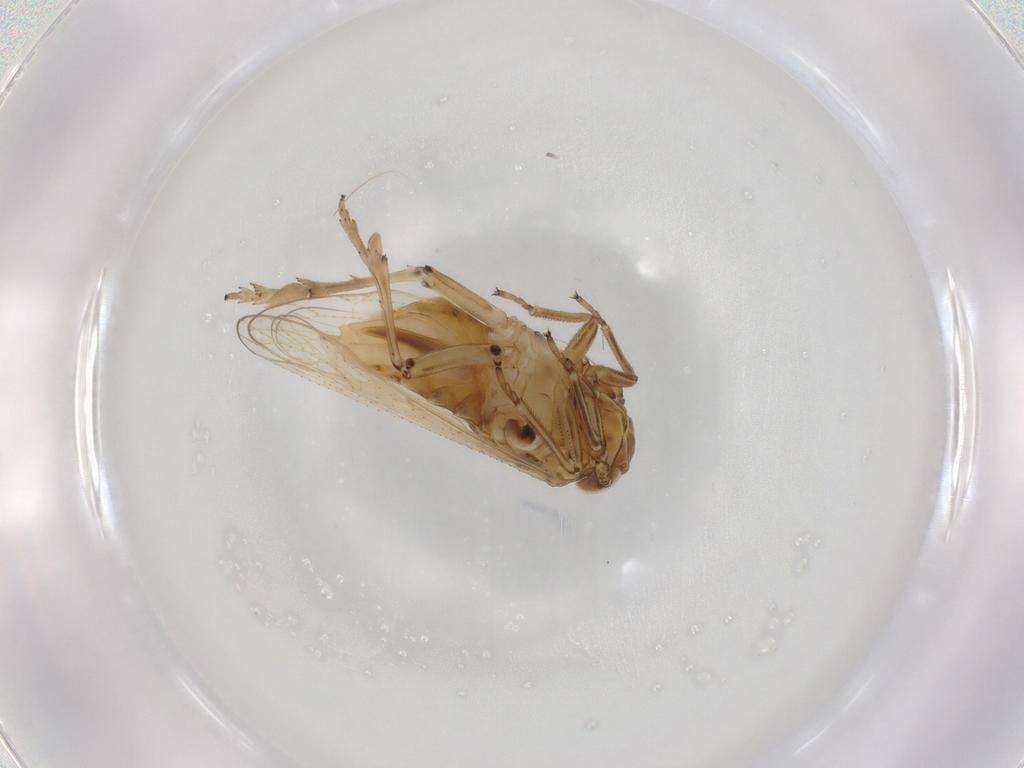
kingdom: Animalia
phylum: Arthropoda
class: Insecta
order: Hemiptera
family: Delphacidae
